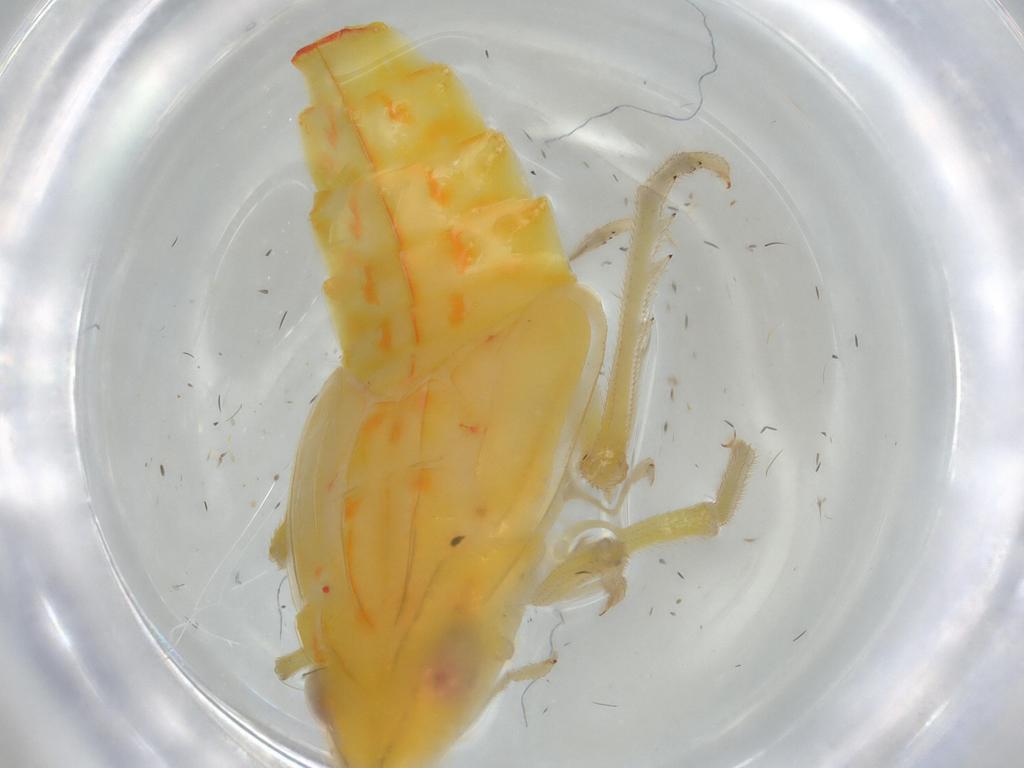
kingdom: Animalia
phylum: Arthropoda
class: Insecta
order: Hemiptera
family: Tropiduchidae
